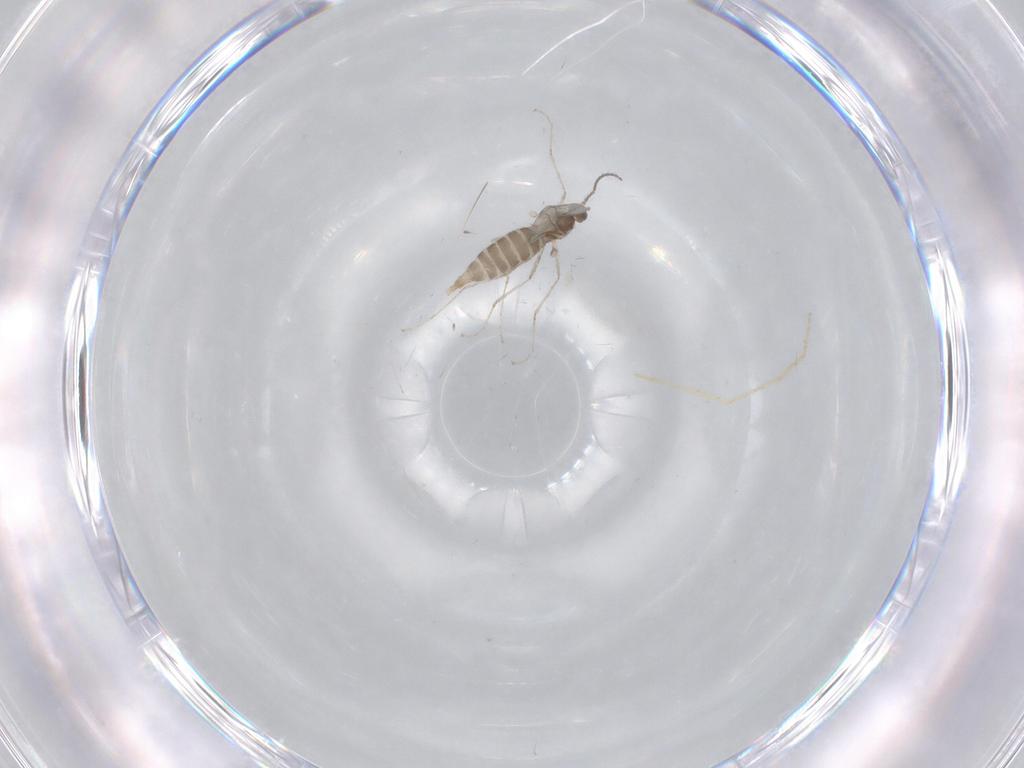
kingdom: Animalia
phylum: Arthropoda
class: Insecta
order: Diptera
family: Chironomidae
